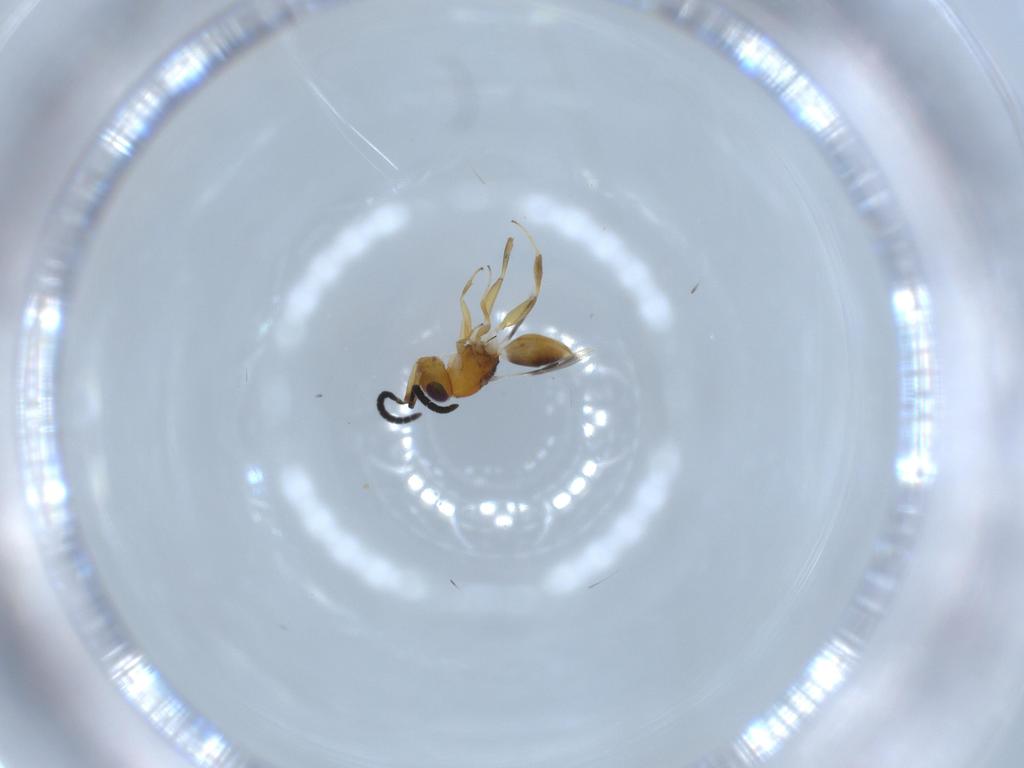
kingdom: Animalia
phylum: Arthropoda
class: Insecta
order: Hymenoptera
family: Megaspilidae
